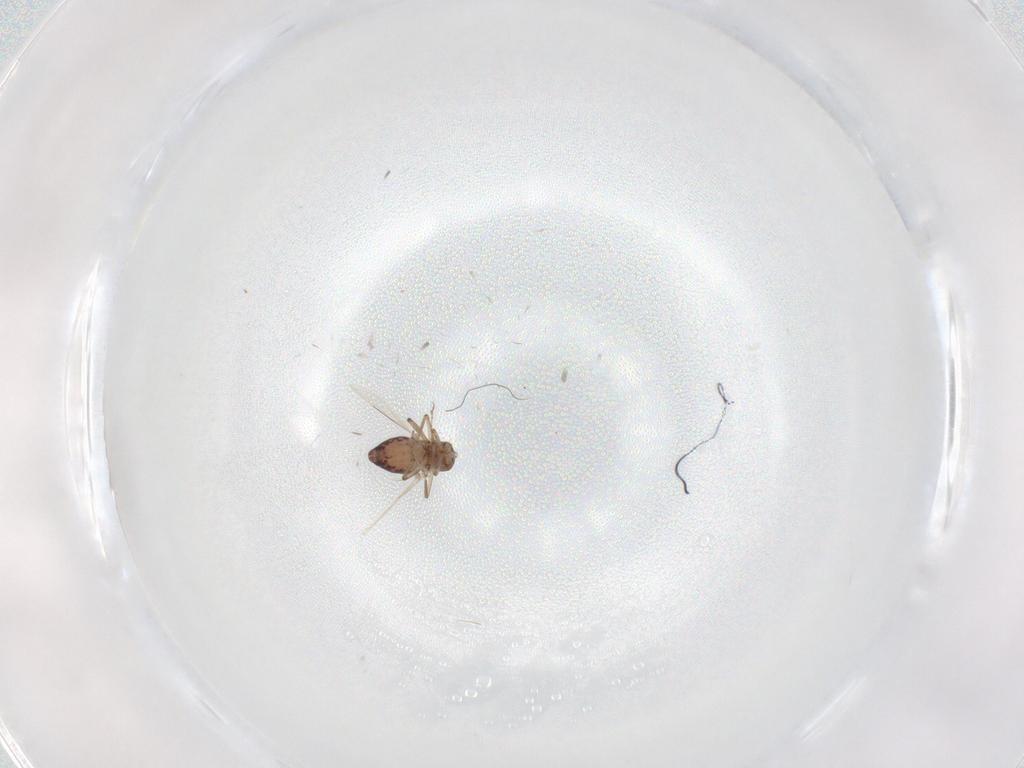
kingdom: Animalia
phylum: Arthropoda
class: Insecta
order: Diptera
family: Ceratopogonidae
